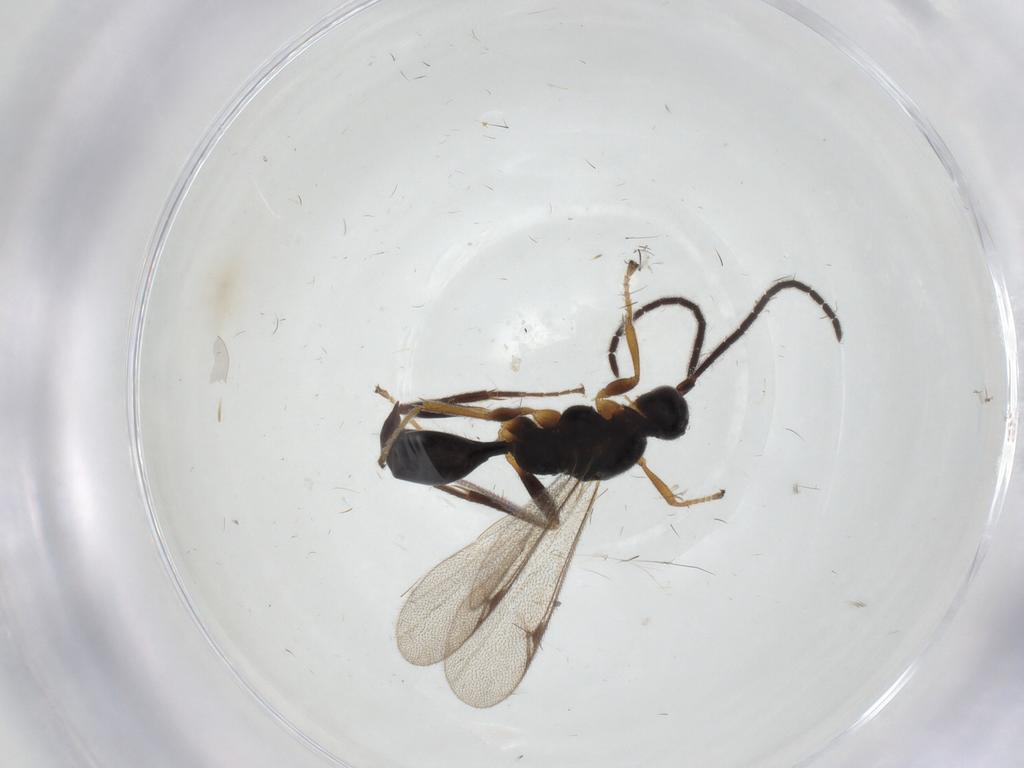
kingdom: Animalia
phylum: Arthropoda
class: Insecta
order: Hymenoptera
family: Proctotrupidae
